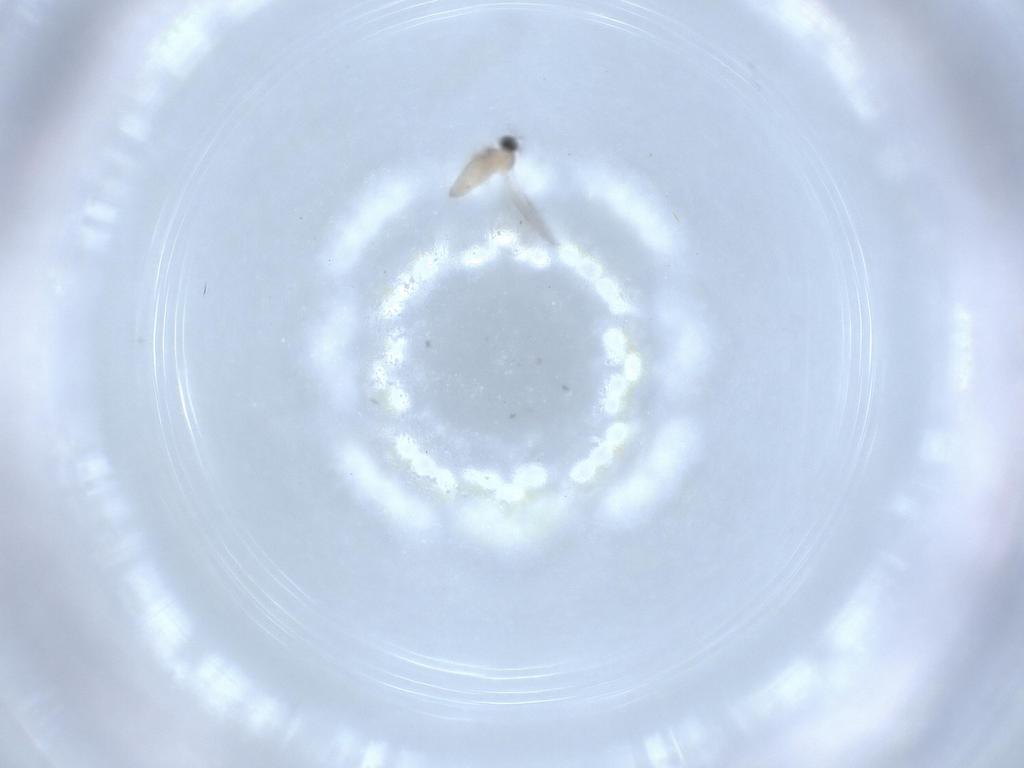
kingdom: Animalia
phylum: Arthropoda
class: Insecta
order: Diptera
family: Cecidomyiidae
